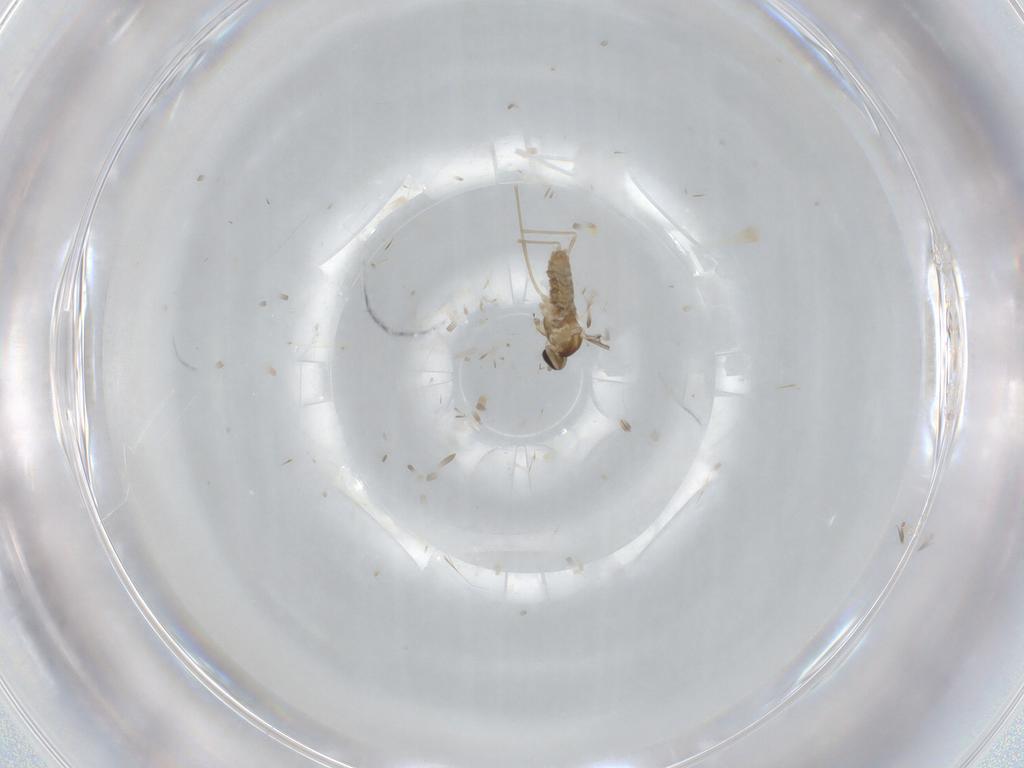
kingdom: Animalia
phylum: Arthropoda
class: Insecta
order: Diptera
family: Cecidomyiidae
